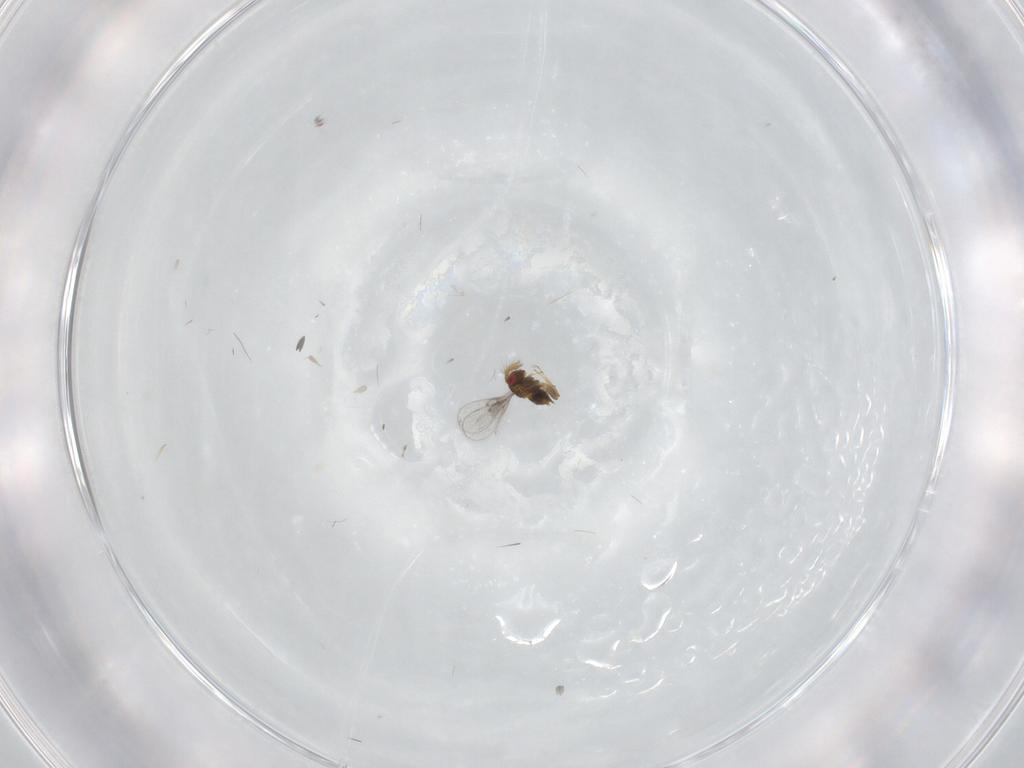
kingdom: Animalia
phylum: Arthropoda
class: Insecta
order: Hymenoptera
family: Trichogrammatidae
